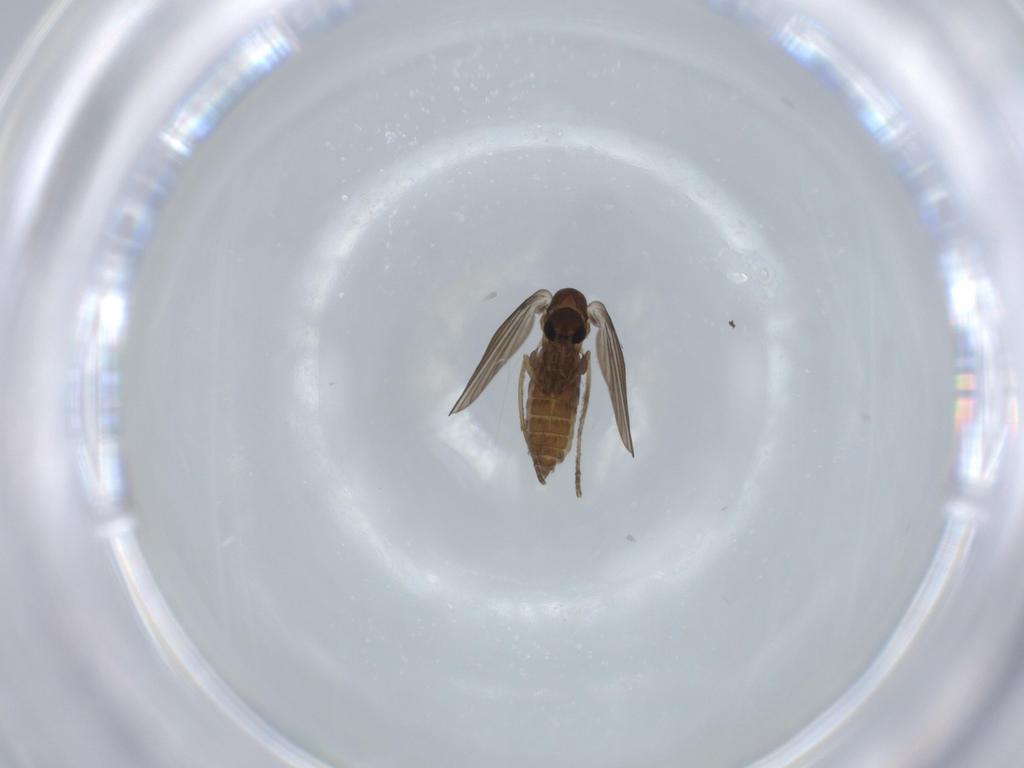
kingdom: Animalia
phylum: Arthropoda
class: Insecta
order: Diptera
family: Psychodidae
